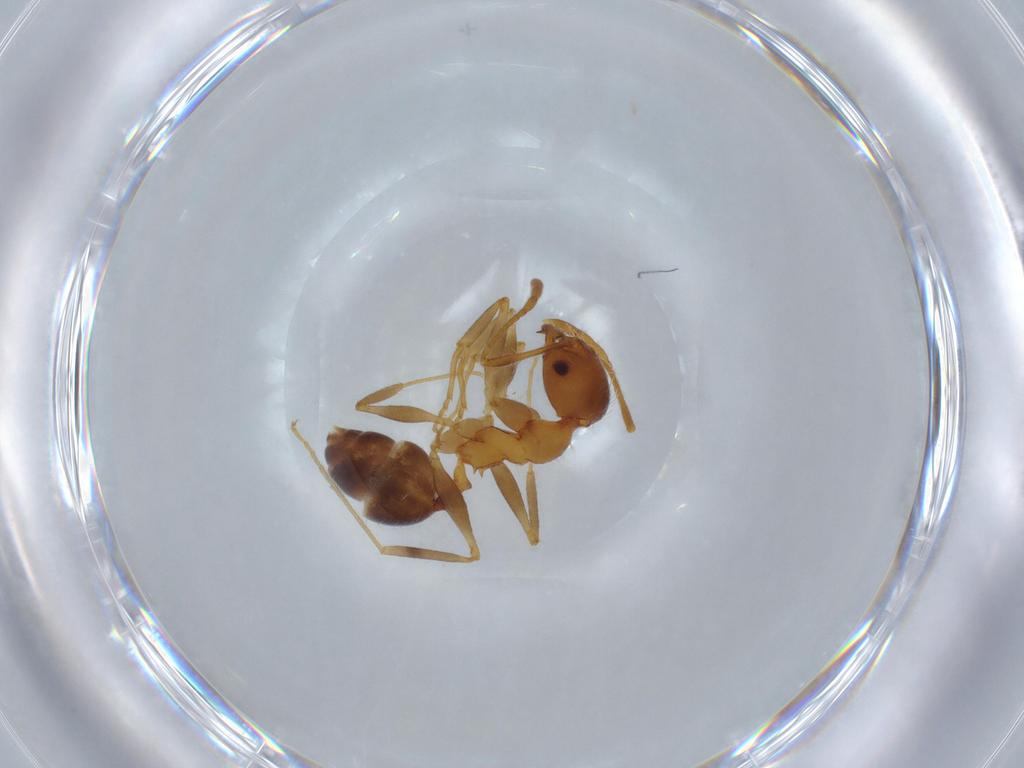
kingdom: Animalia
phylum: Arthropoda
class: Insecta
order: Hymenoptera
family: Formicidae
